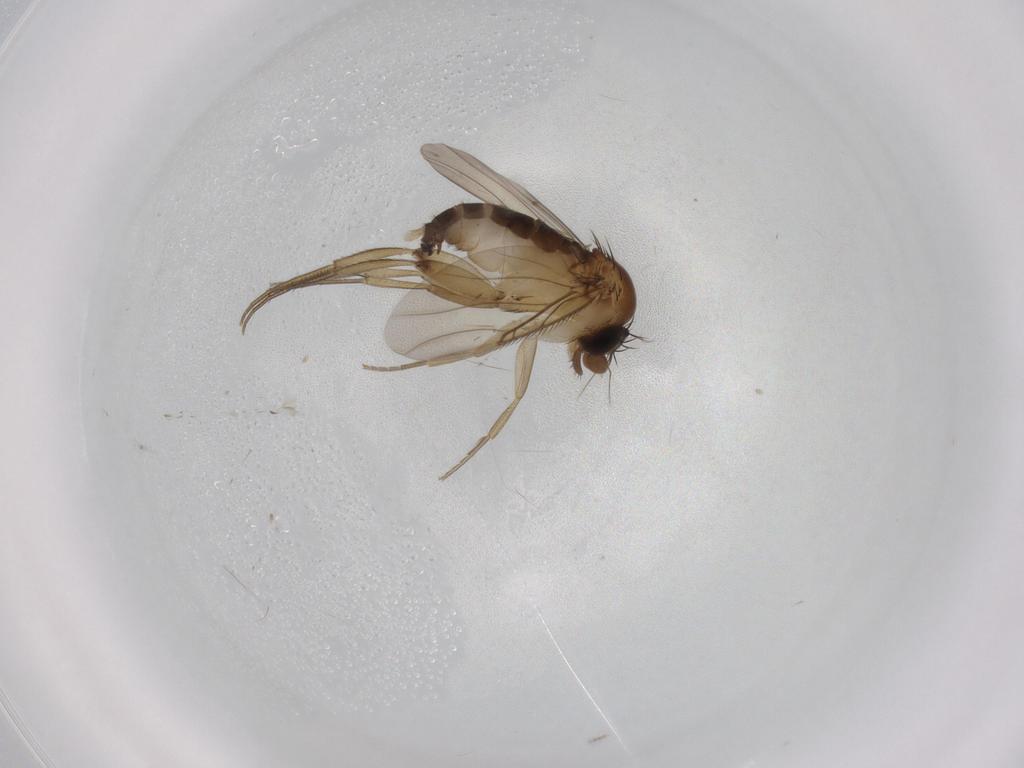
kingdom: Animalia
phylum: Arthropoda
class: Insecta
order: Diptera
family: Phoridae
